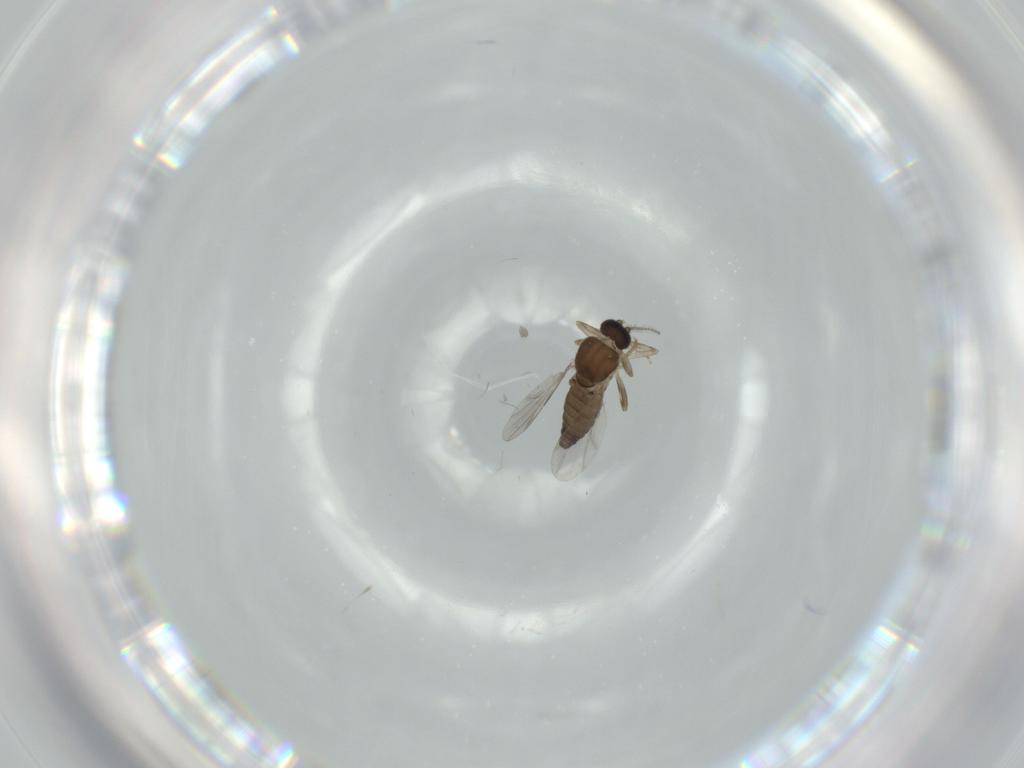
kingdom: Animalia
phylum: Arthropoda
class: Insecta
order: Diptera
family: Ceratopogonidae
